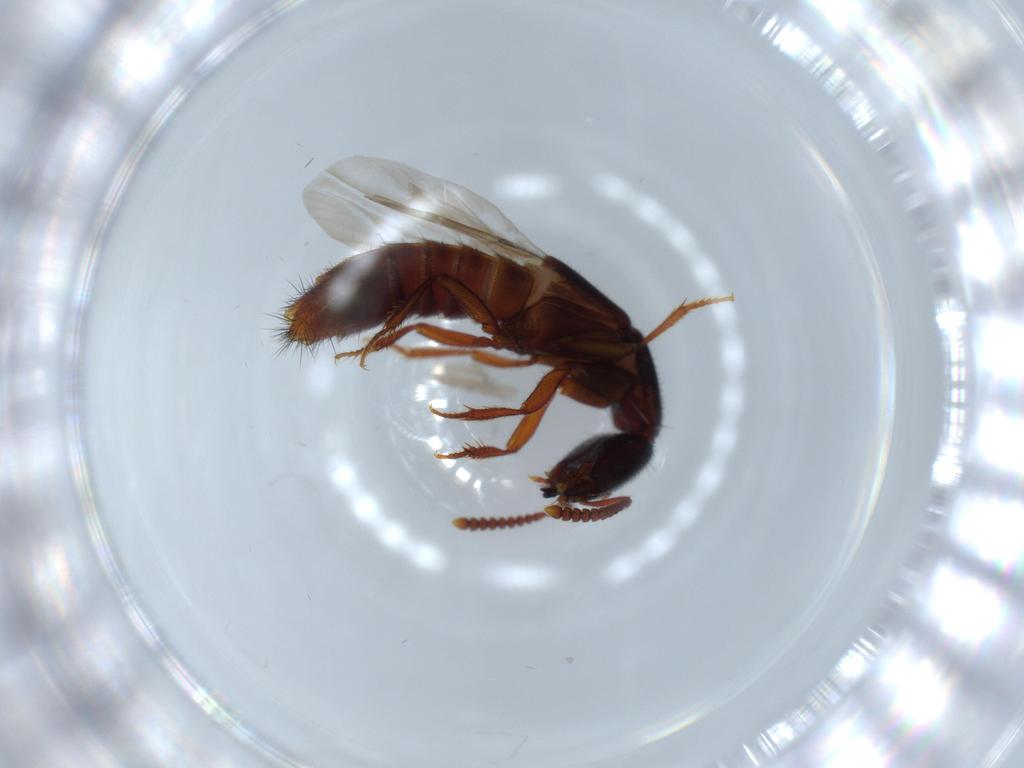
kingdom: Animalia
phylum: Arthropoda
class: Insecta
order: Coleoptera
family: Staphylinidae
